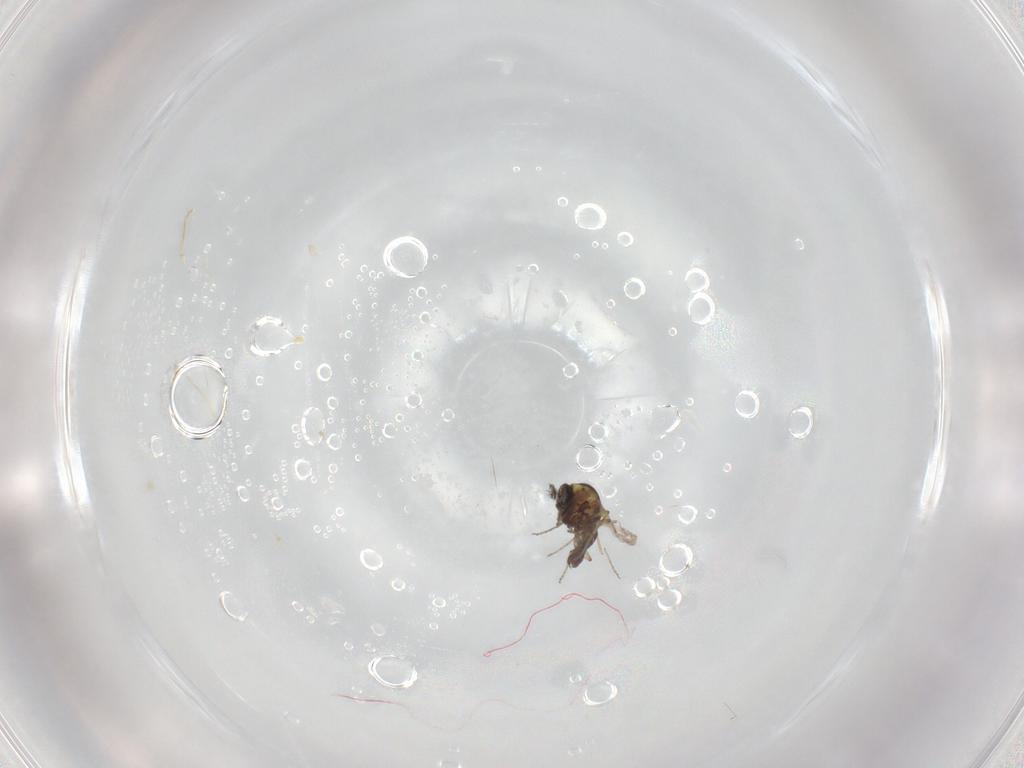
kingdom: Animalia
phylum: Arthropoda
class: Insecta
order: Diptera
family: Ceratopogonidae
